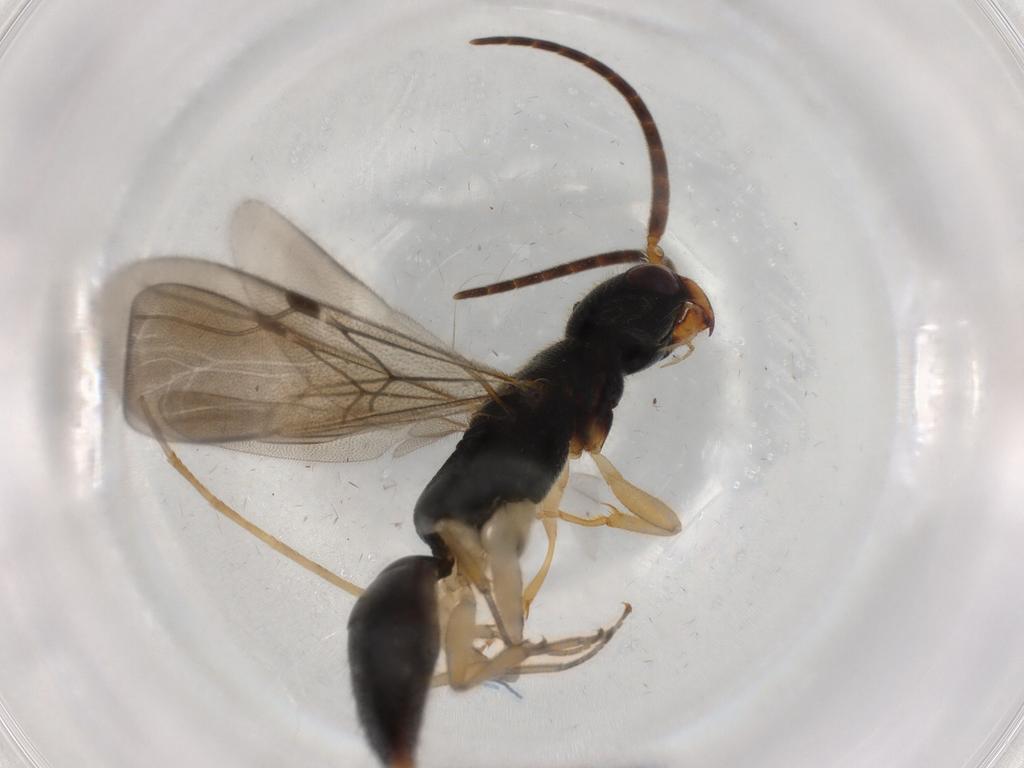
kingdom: Animalia
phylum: Arthropoda
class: Insecta
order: Hymenoptera
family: Bethylidae
